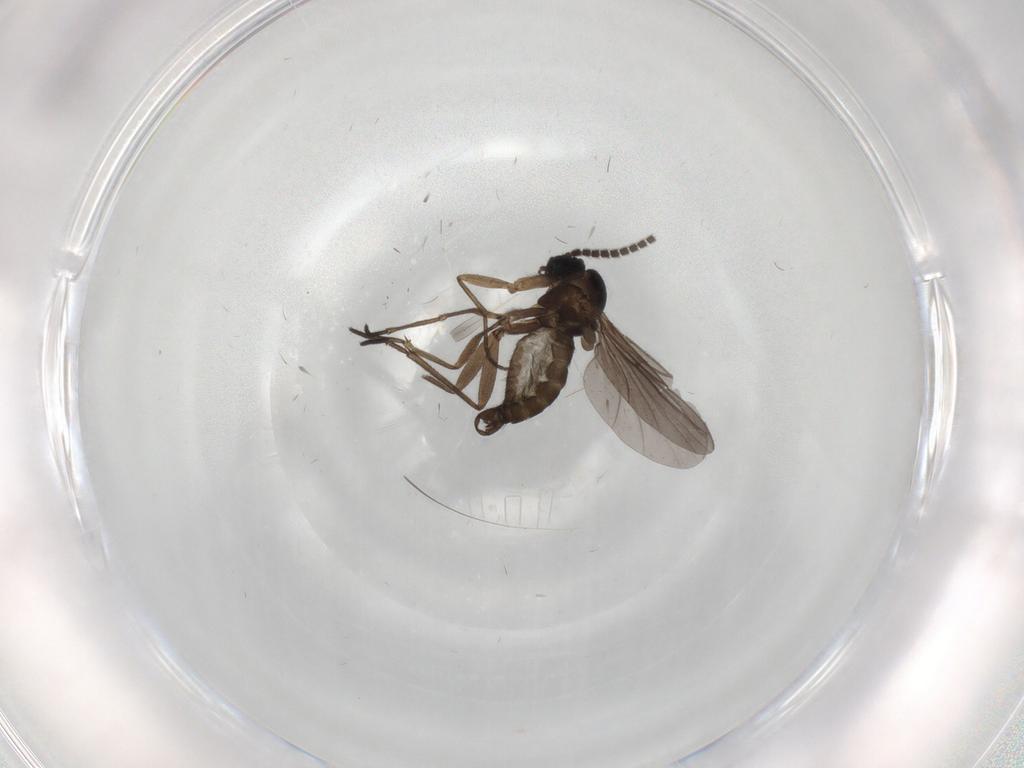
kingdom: Animalia
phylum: Arthropoda
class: Insecta
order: Diptera
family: Sciaridae
